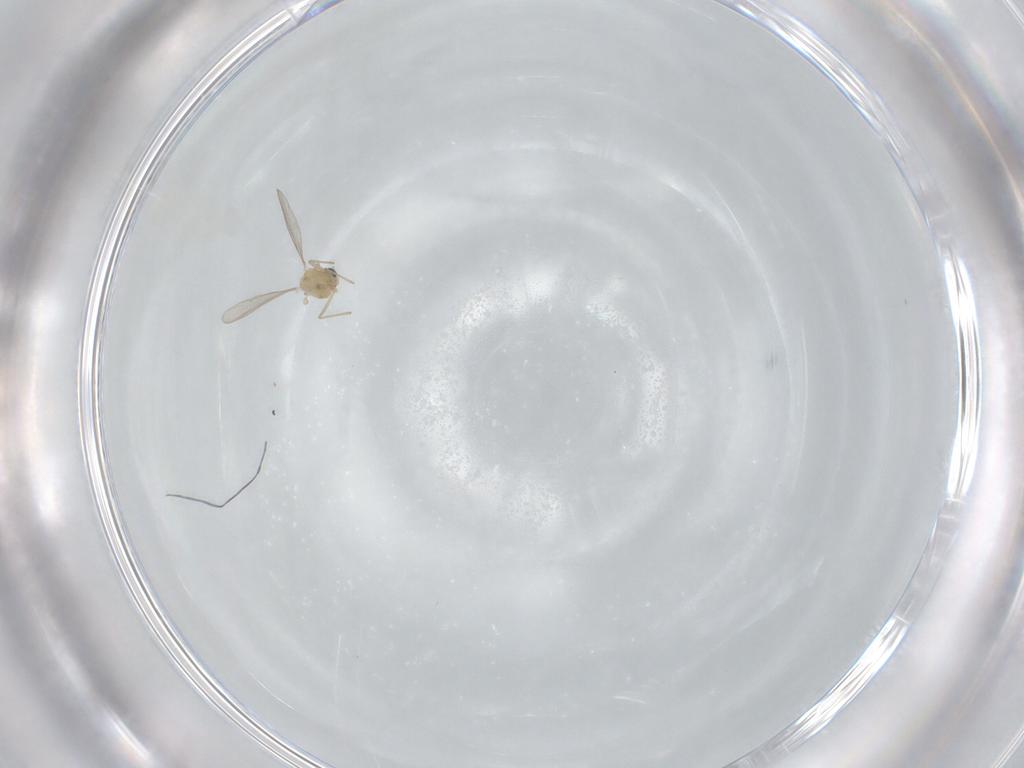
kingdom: Animalia
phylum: Arthropoda
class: Insecta
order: Diptera
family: Chironomidae
